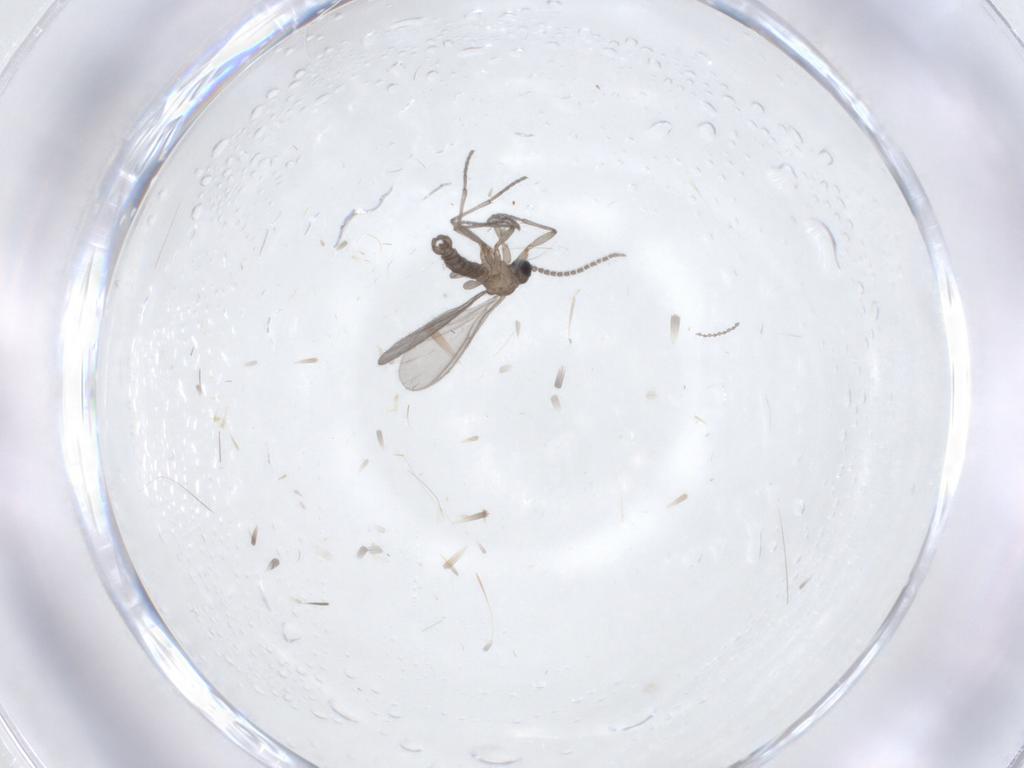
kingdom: Animalia
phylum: Arthropoda
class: Insecta
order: Diptera
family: Sciaridae
